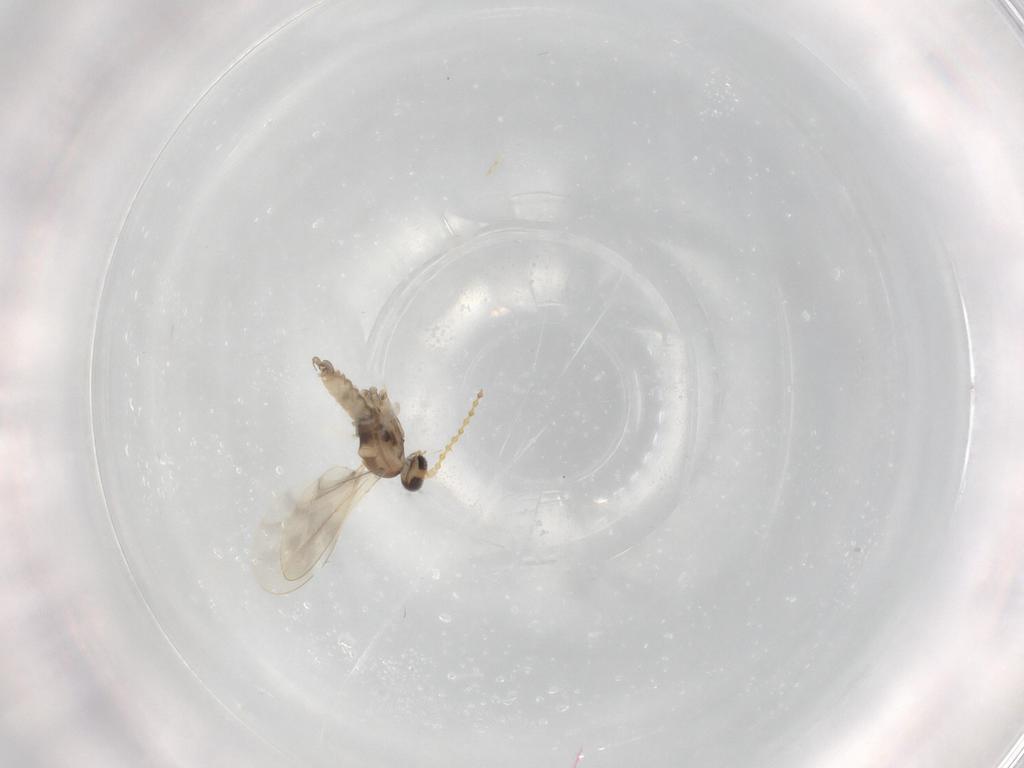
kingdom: Animalia
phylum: Arthropoda
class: Insecta
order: Diptera
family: Cecidomyiidae
